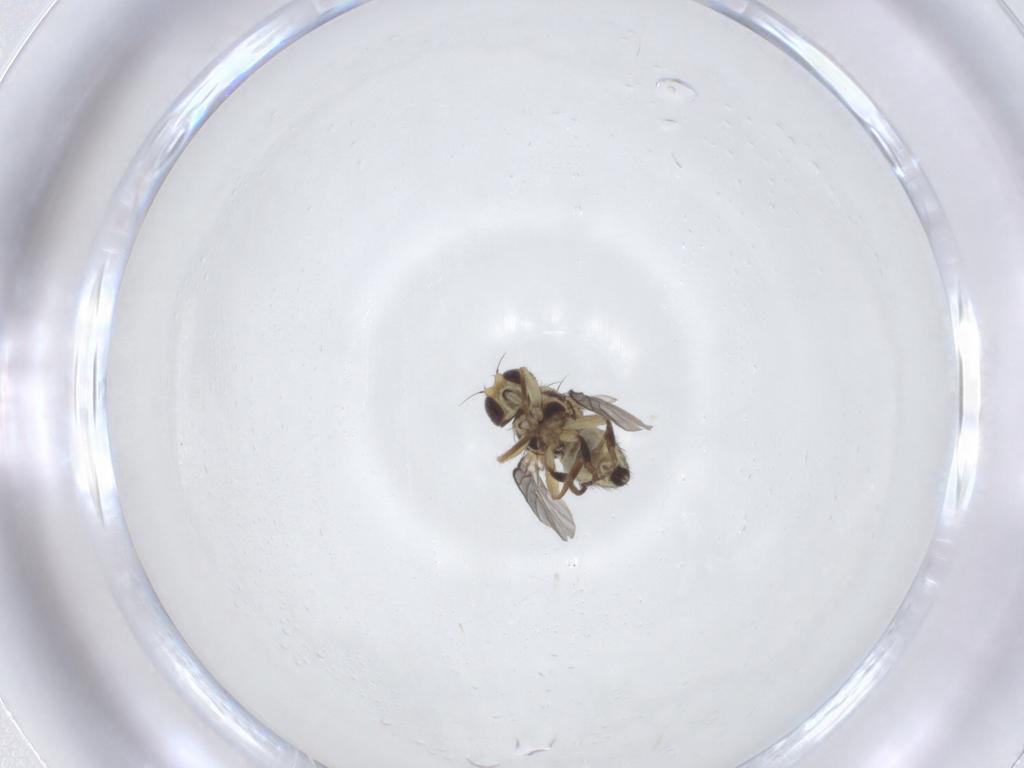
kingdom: Animalia
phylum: Arthropoda
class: Insecta
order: Diptera
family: Agromyzidae
